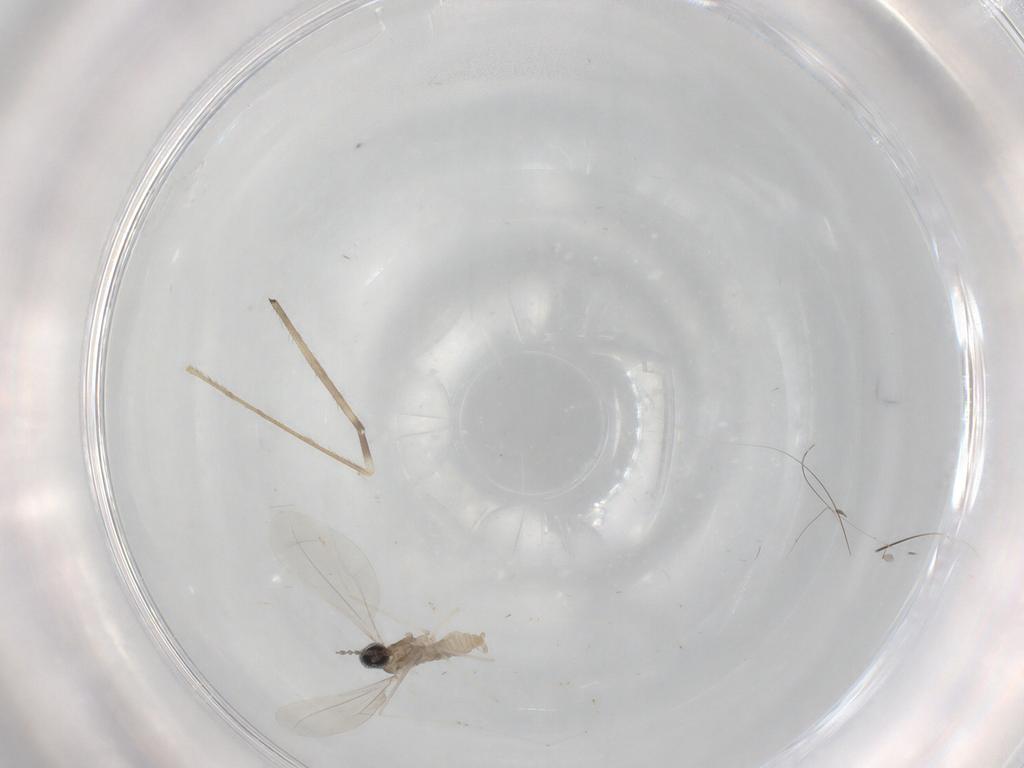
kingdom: Animalia
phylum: Arthropoda
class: Insecta
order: Diptera
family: Cecidomyiidae
